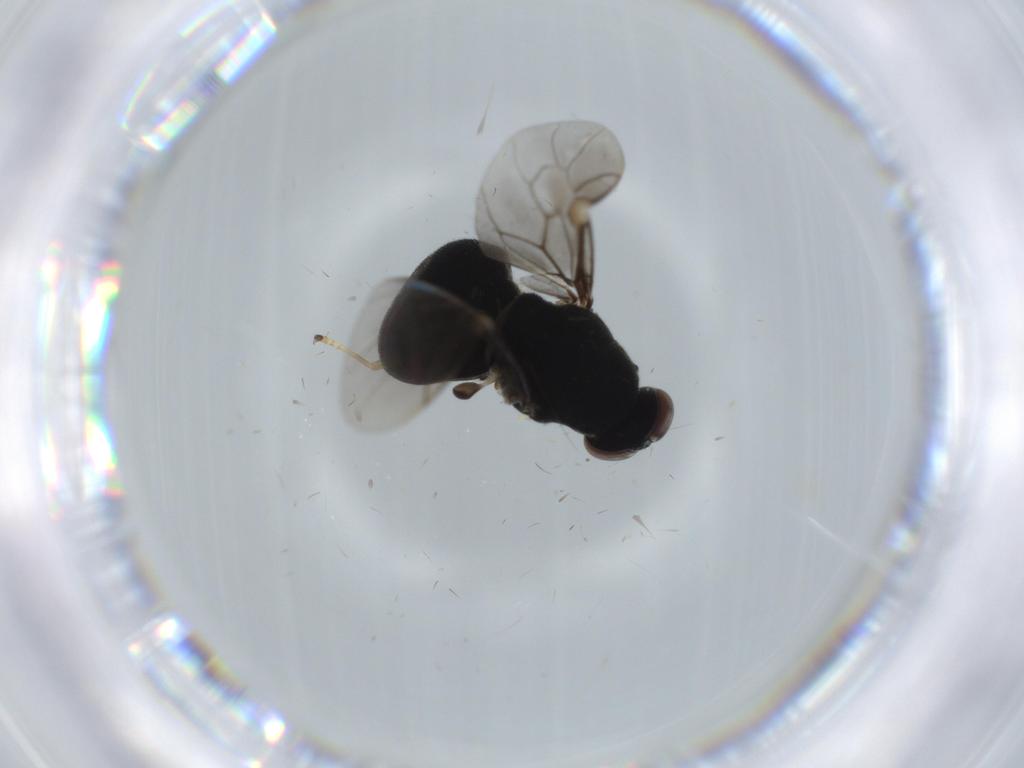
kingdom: Animalia
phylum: Arthropoda
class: Insecta
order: Diptera
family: Stratiomyidae
